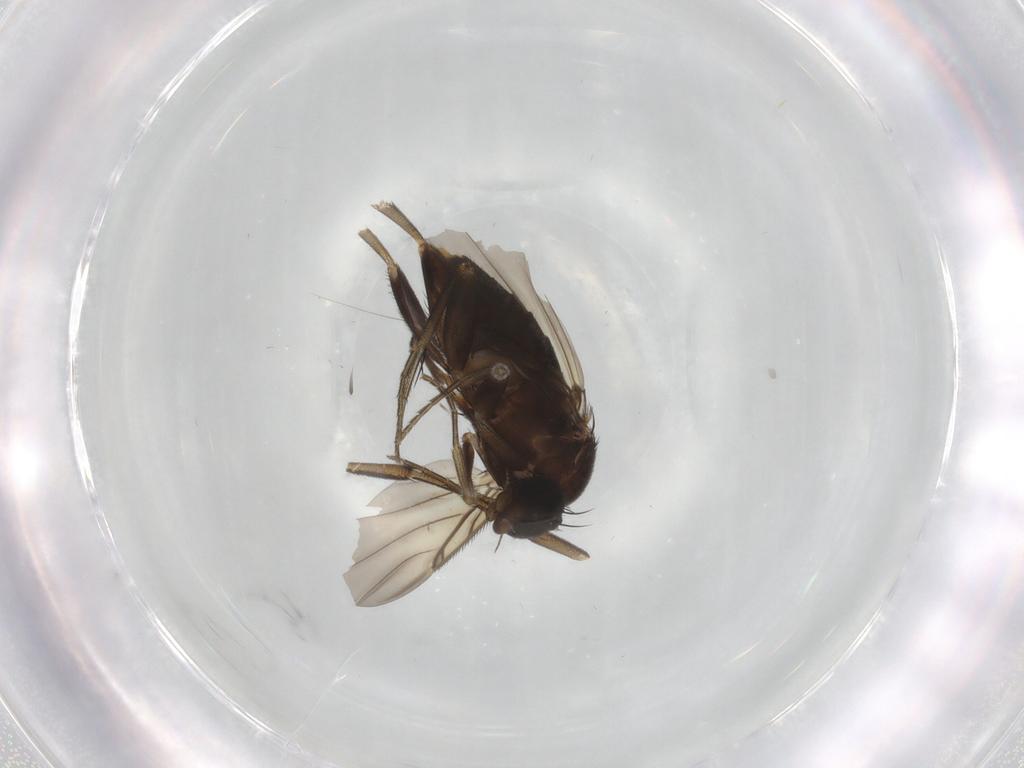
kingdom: Animalia
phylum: Arthropoda
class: Insecta
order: Diptera
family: Phoridae
